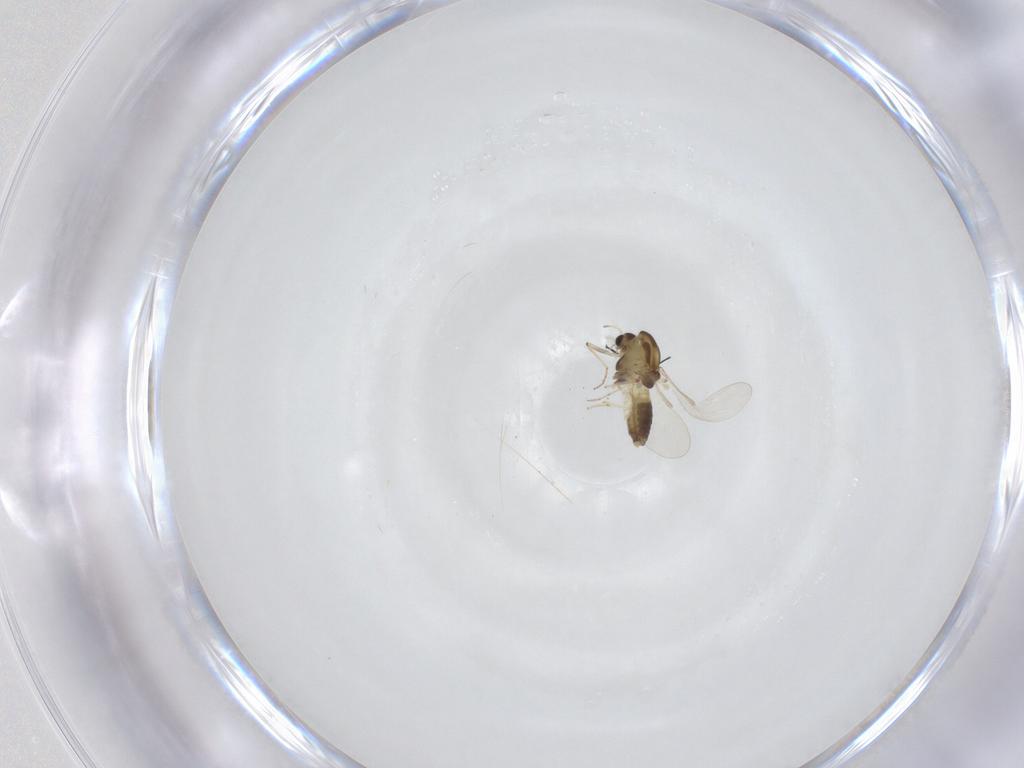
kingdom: Animalia
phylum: Arthropoda
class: Insecta
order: Diptera
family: Chironomidae
